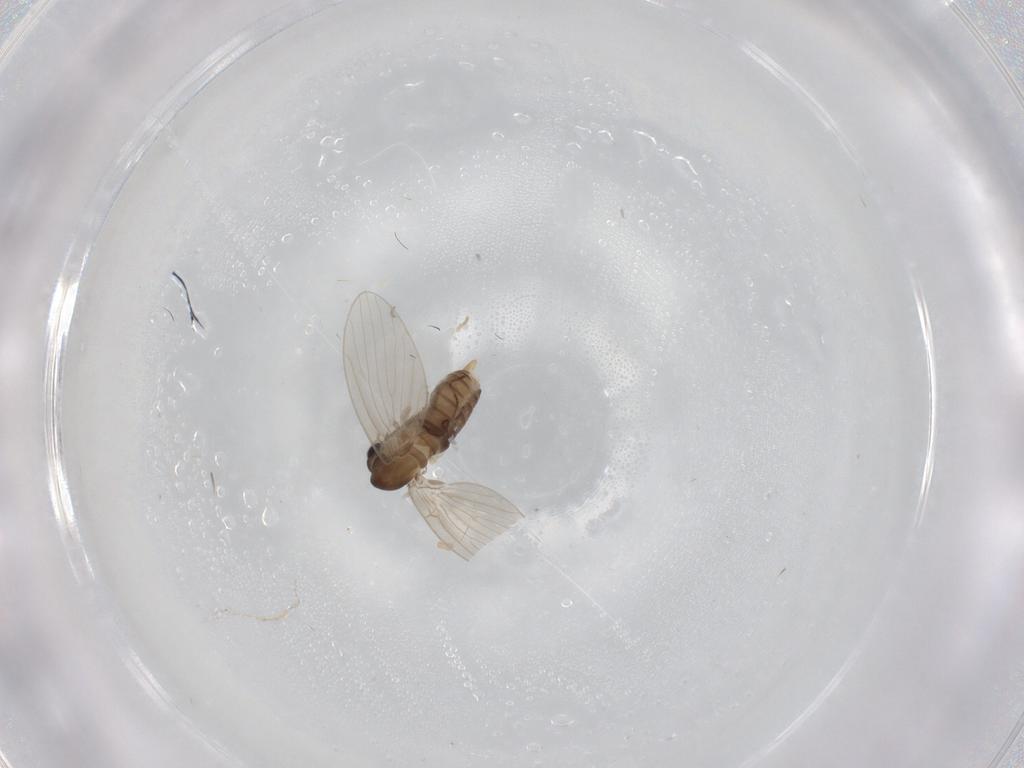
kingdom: Animalia
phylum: Arthropoda
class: Insecta
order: Diptera
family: Psychodidae
